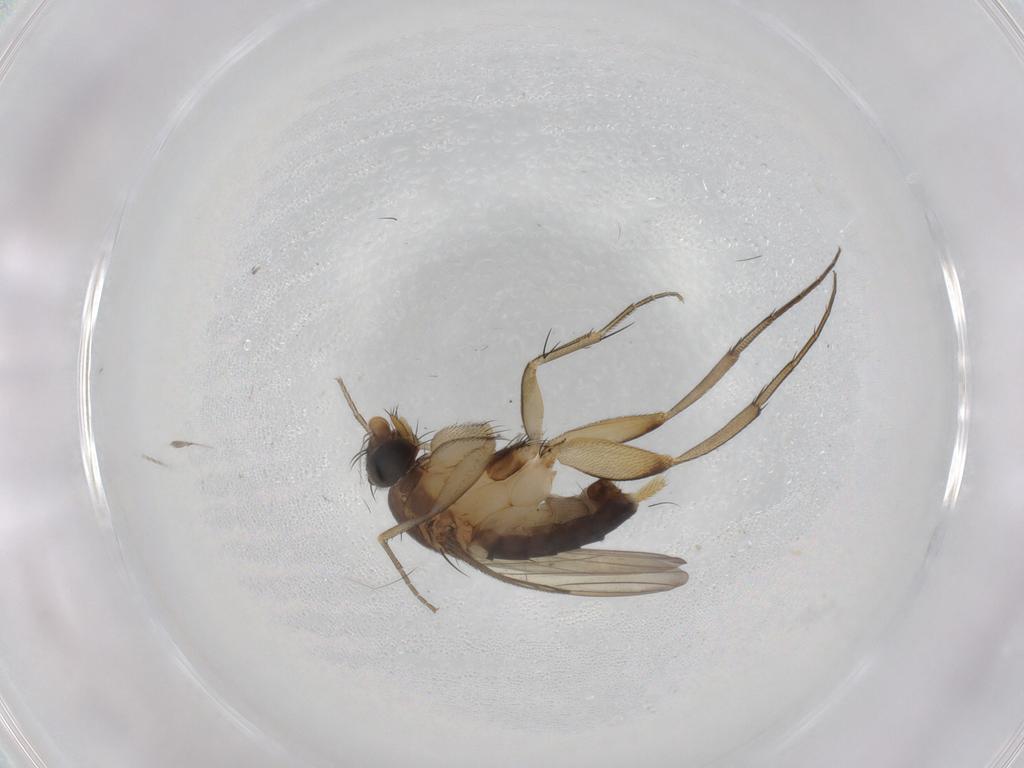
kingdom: Animalia
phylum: Arthropoda
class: Insecta
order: Diptera
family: Phoridae
